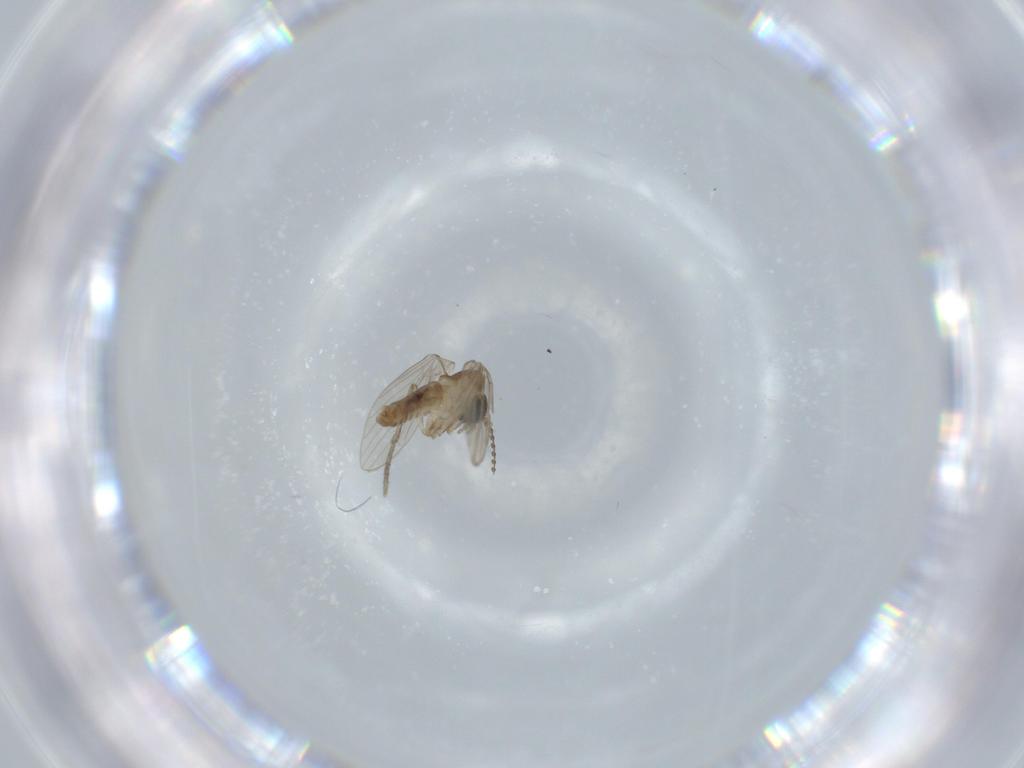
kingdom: Animalia
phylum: Arthropoda
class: Insecta
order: Diptera
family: Psychodidae
